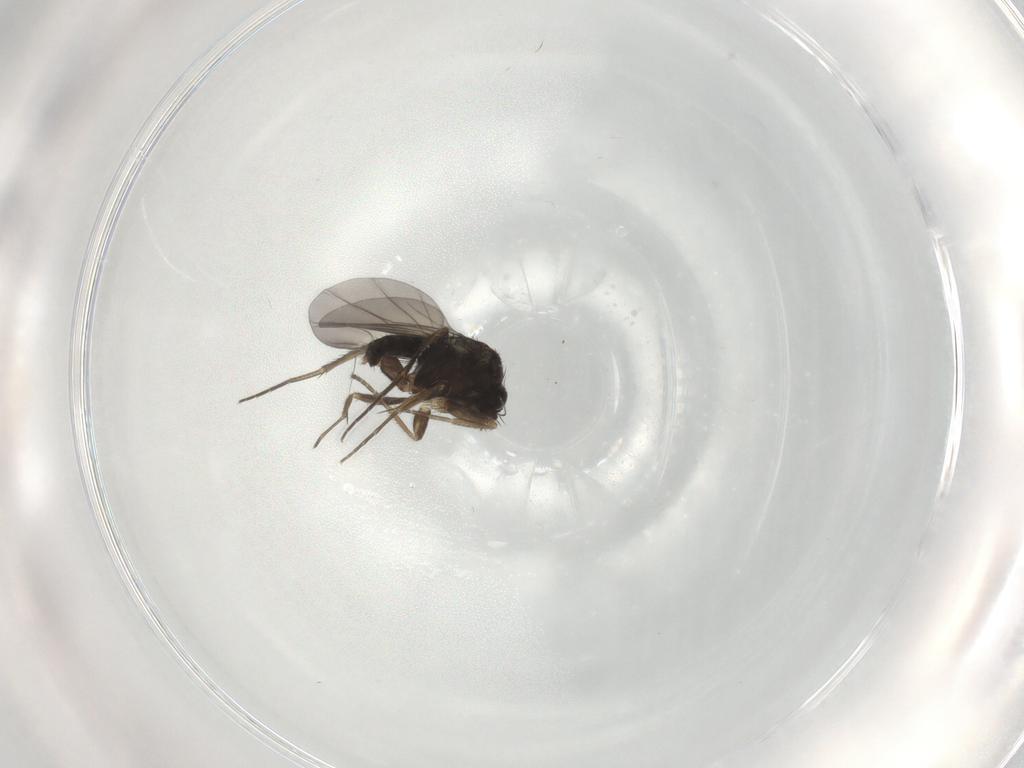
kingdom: Animalia
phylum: Arthropoda
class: Insecta
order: Diptera
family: Phoridae
